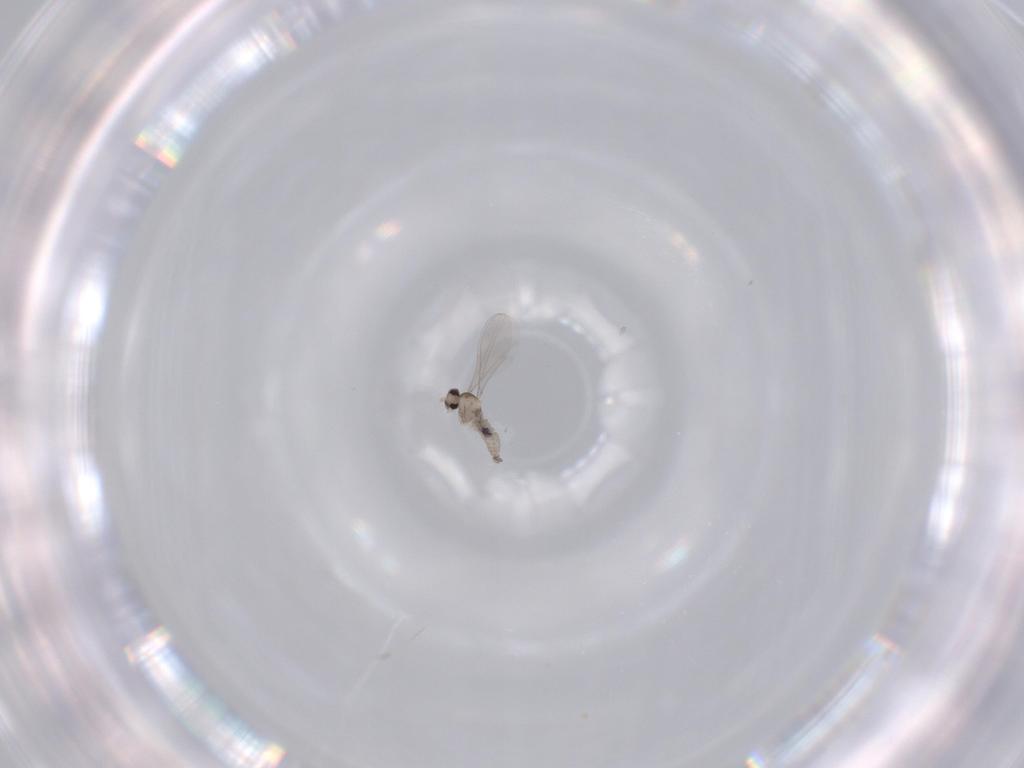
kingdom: Animalia
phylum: Arthropoda
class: Insecta
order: Diptera
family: Cecidomyiidae
